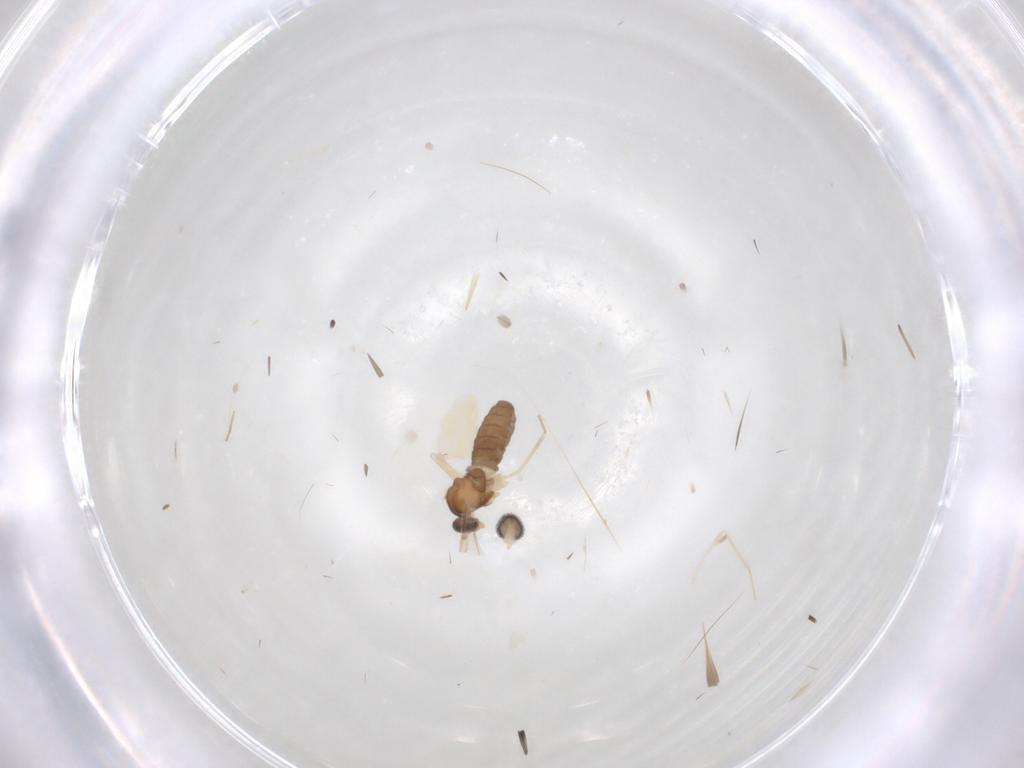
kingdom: Animalia
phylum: Arthropoda
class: Insecta
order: Diptera
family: Cecidomyiidae
